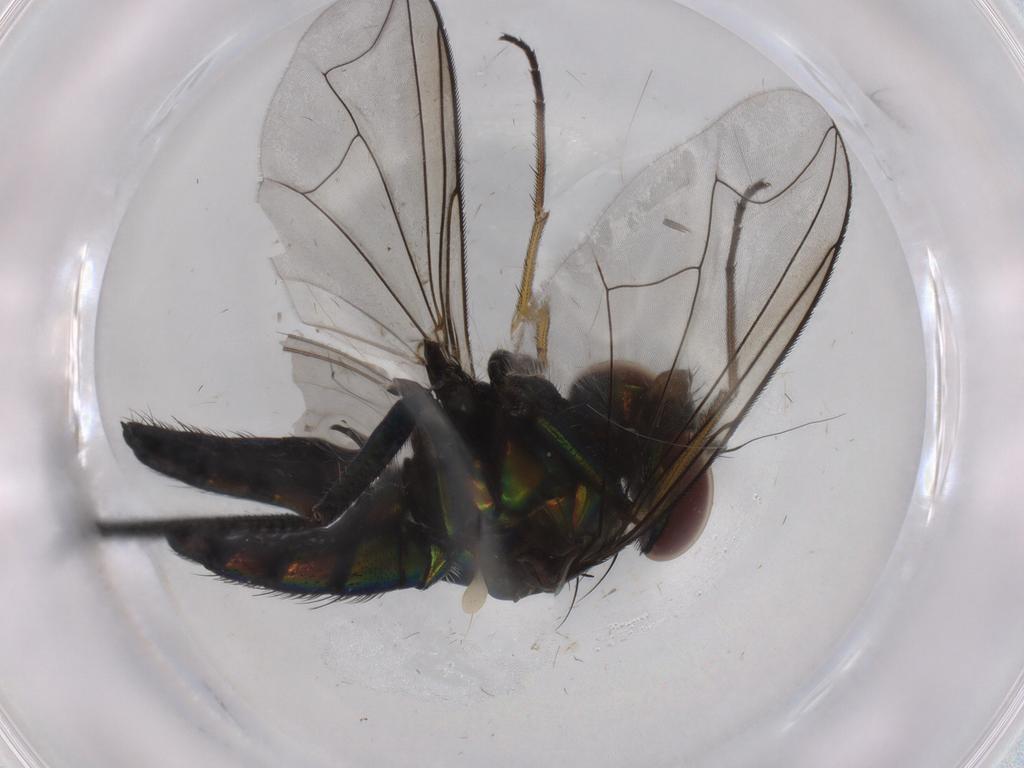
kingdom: Animalia
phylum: Arthropoda
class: Insecta
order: Diptera
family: Dolichopodidae
